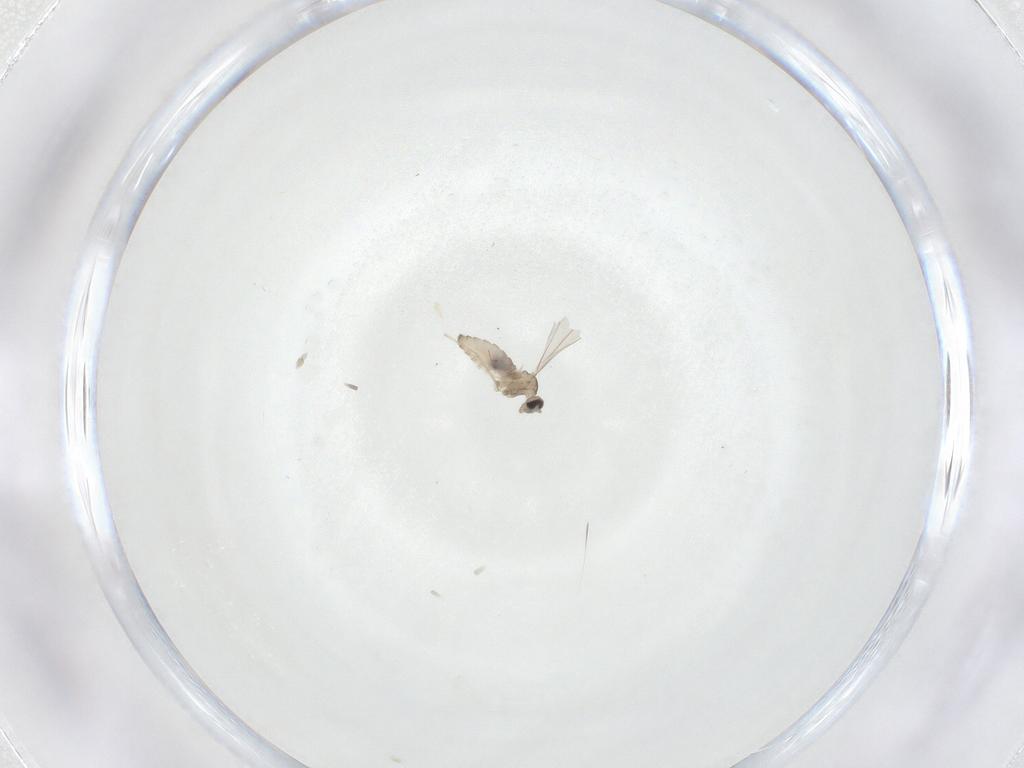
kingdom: Animalia
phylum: Arthropoda
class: Insecta
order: Diptera
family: Cecidomyiidae
